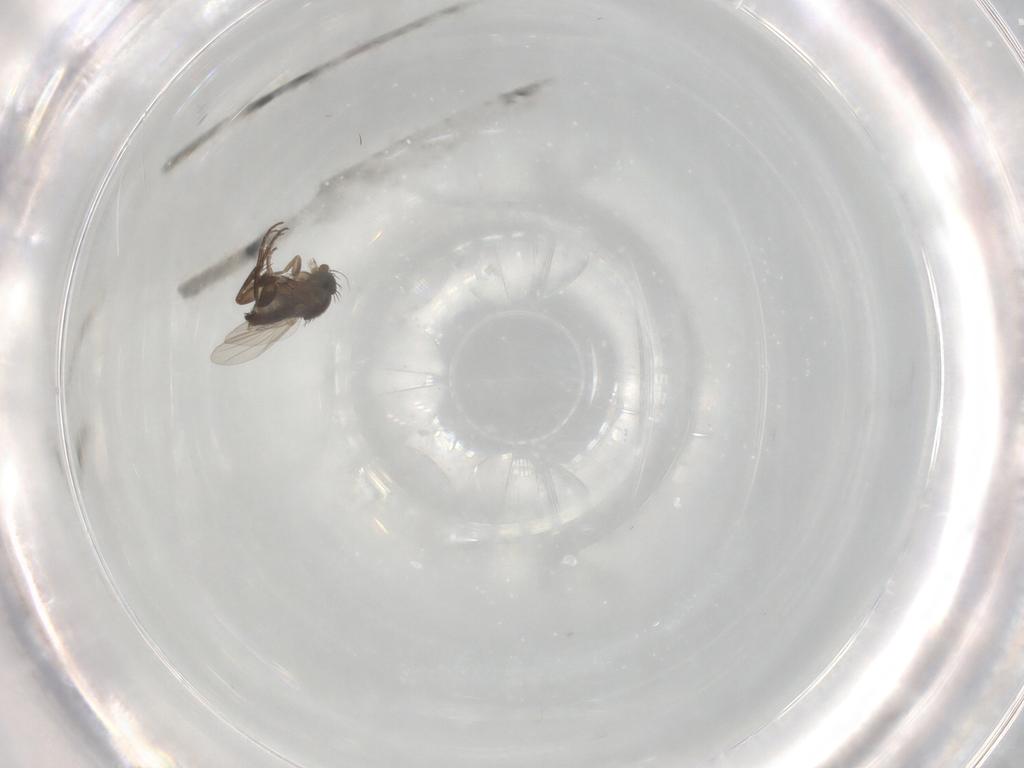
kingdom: Animalia
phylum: Arthropoda
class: Insecta
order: Diptera
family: Phoridae
